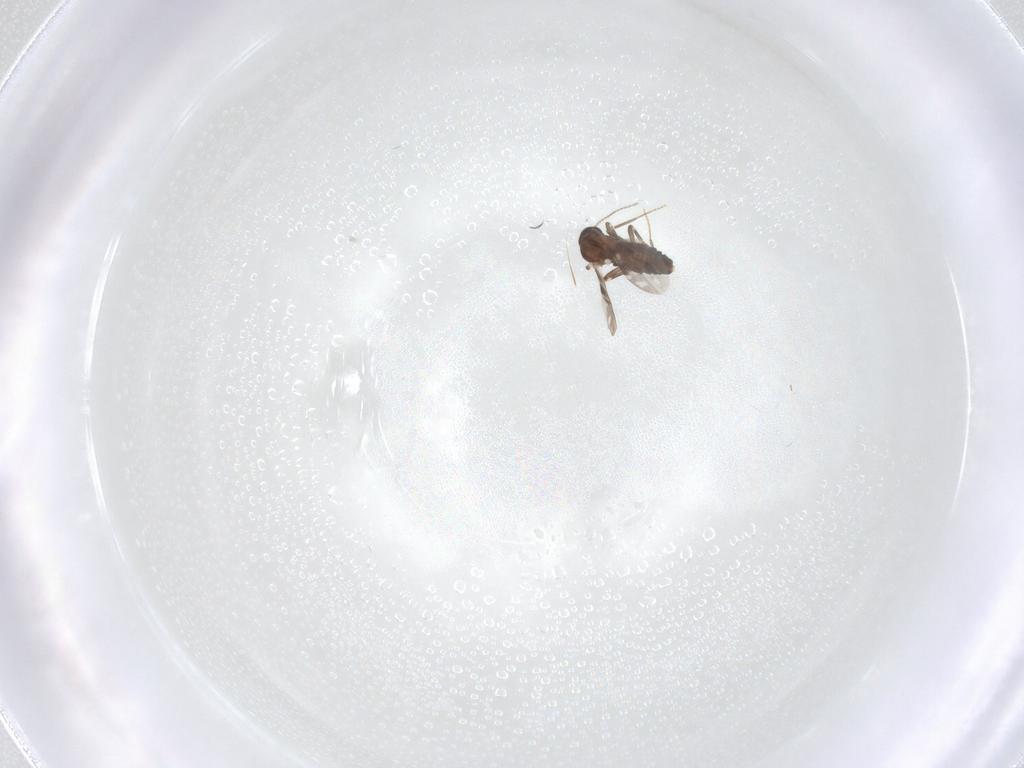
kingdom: Animalia
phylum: Arthropoda
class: Insecta
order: Diptera
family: Ceratopogonidae
